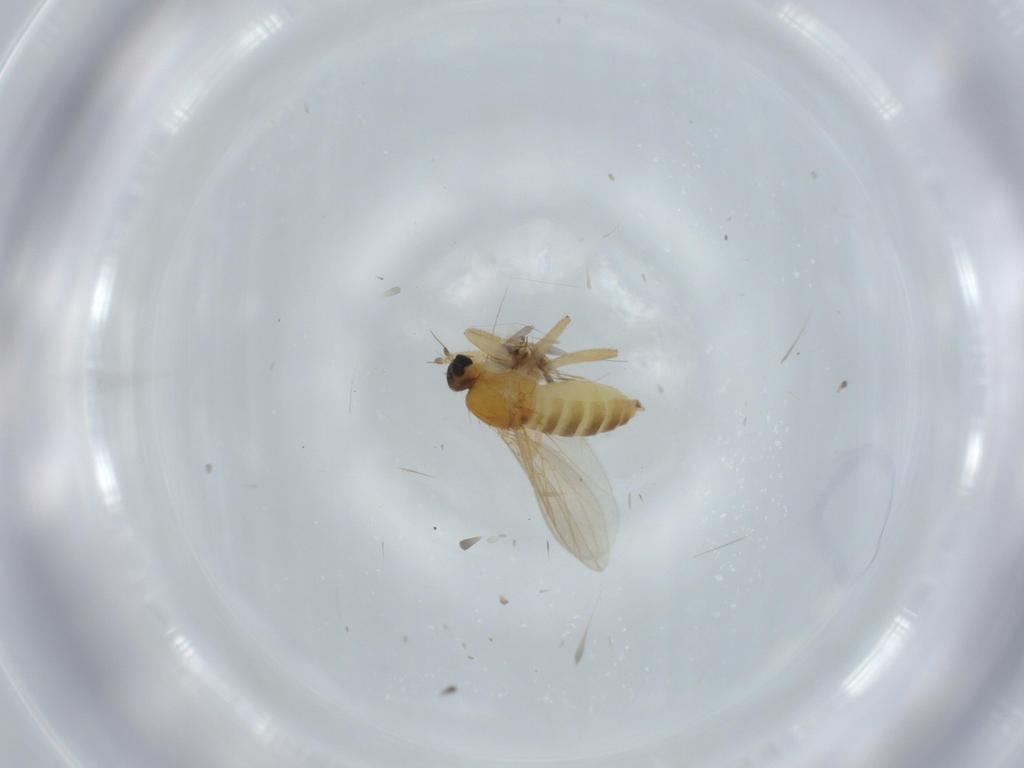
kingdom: Animalia
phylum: Arthropoda
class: Insecta
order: Diptera
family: Hybotidae
